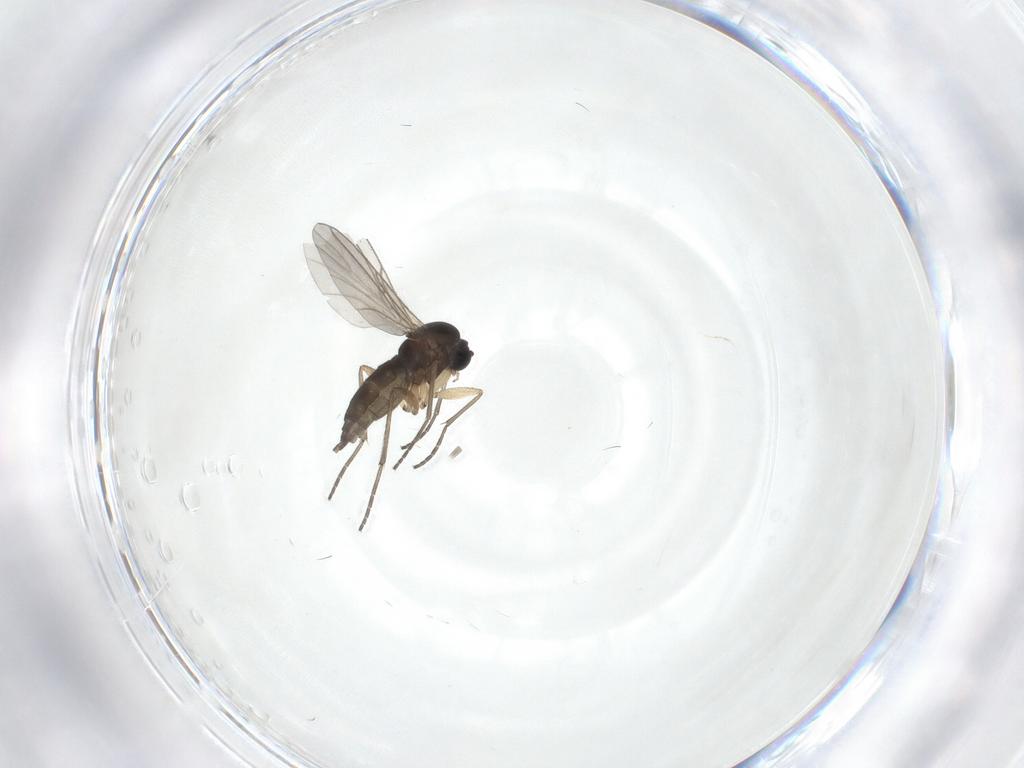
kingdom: Animalia
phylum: Arthropoda
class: Insecta
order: Diptera
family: Sciaridae
